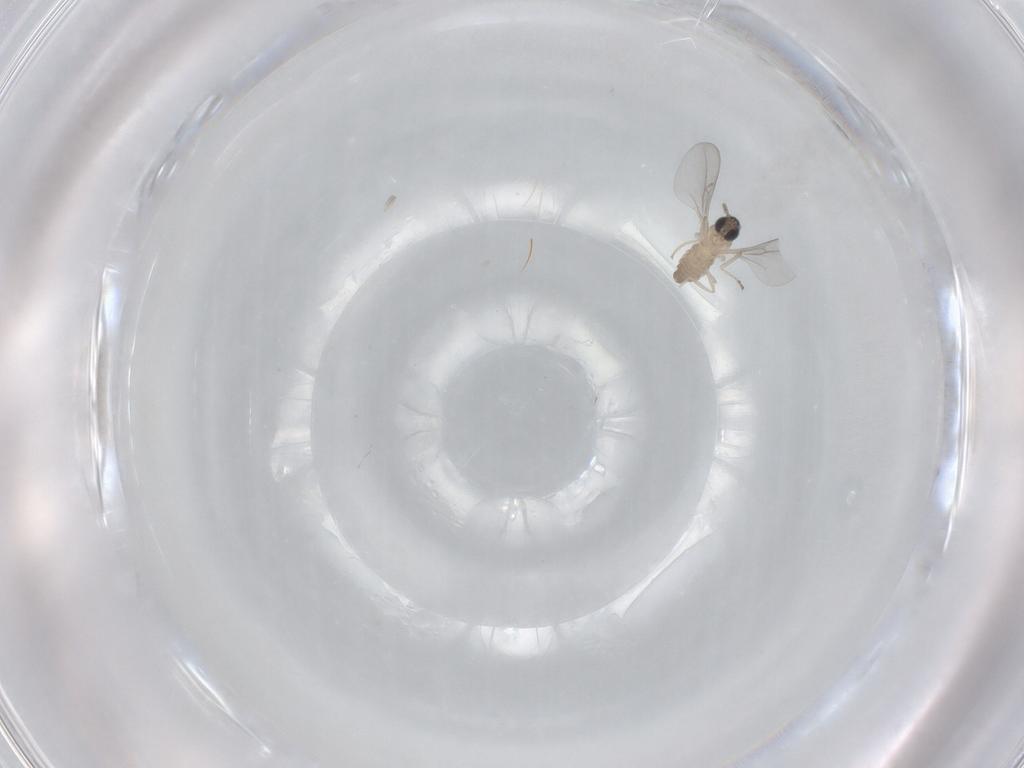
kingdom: Animalia
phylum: Arthropoda
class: Insecta
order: Diptera
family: Cecidomyiidae
